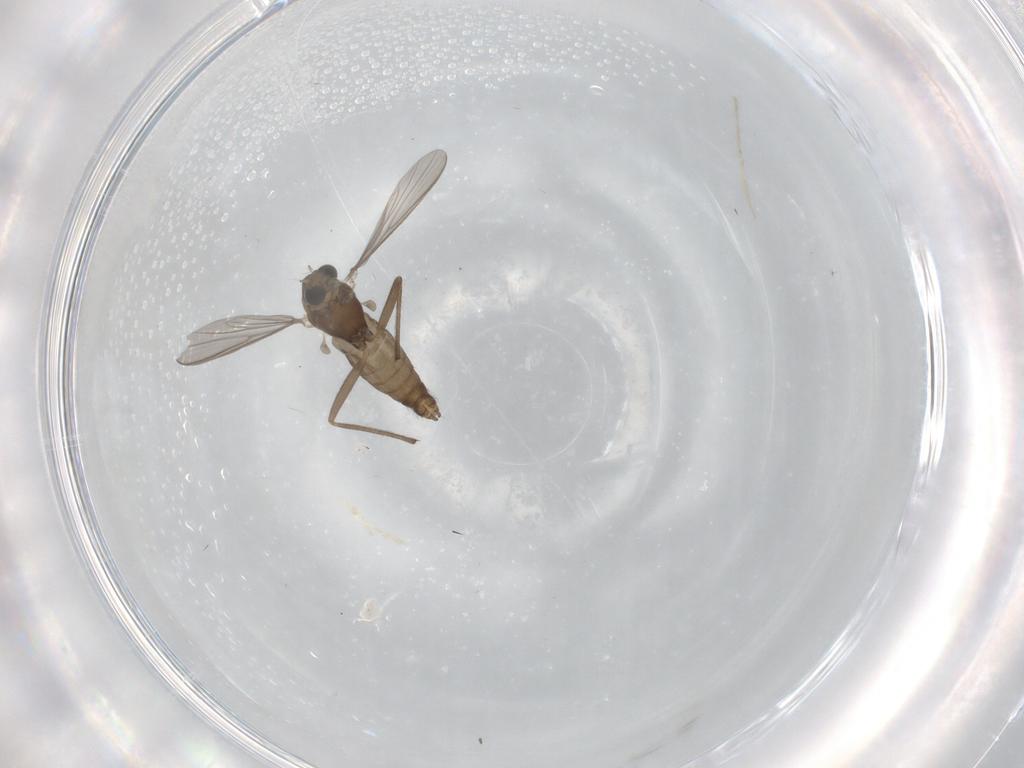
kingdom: Animalia
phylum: Arthropoda
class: Insecta
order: Diptera
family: Chironomidae
